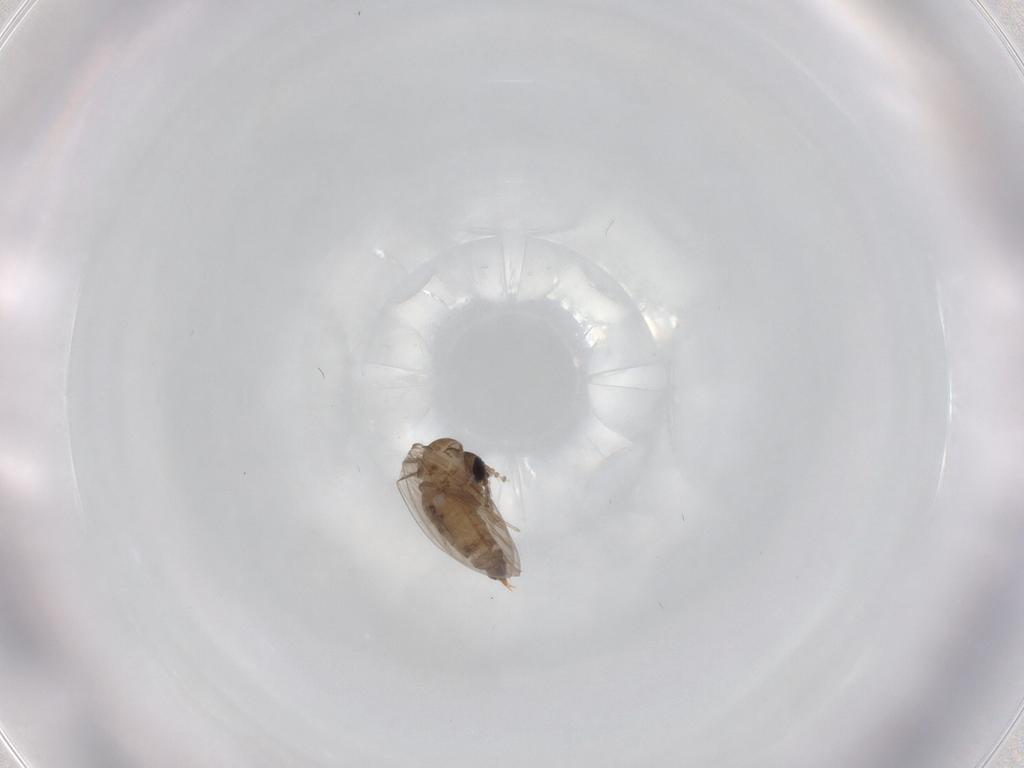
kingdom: Animalia
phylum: Arthropoda
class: Insecta
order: Diptera
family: Psychodidae
